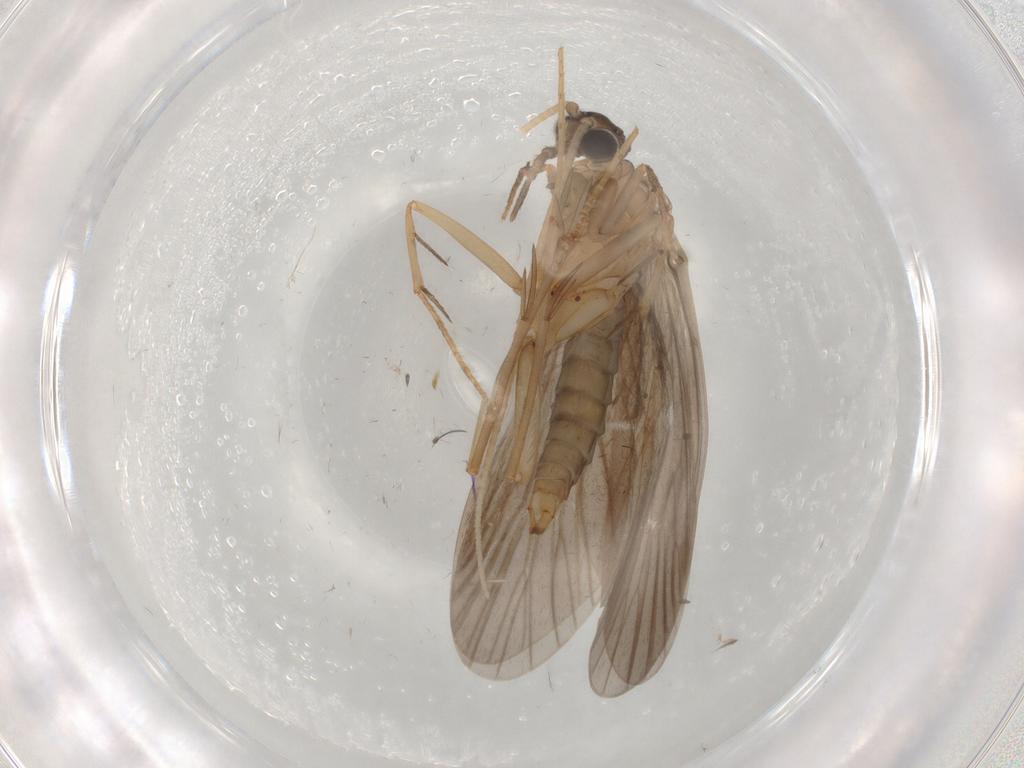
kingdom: Animalia
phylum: Arthropoda
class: Insecta
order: Trichoptera
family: Philopotamidae
